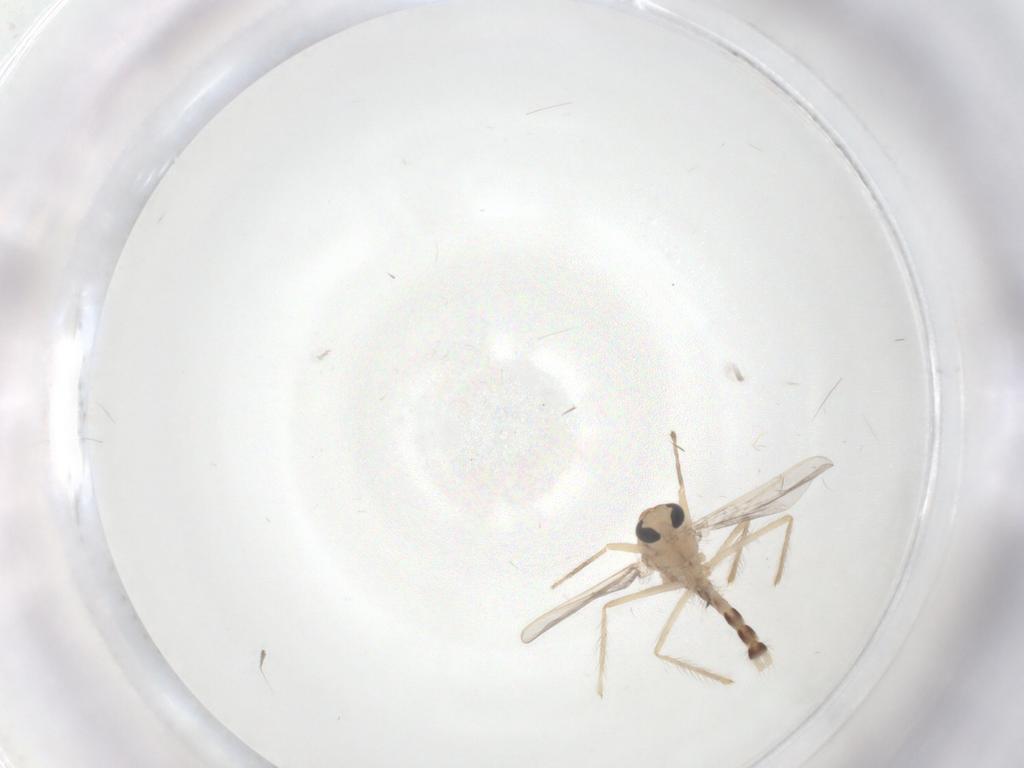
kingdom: Animalia
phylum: Arthropoda
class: Insecta
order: Diptera
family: Chironomidae
